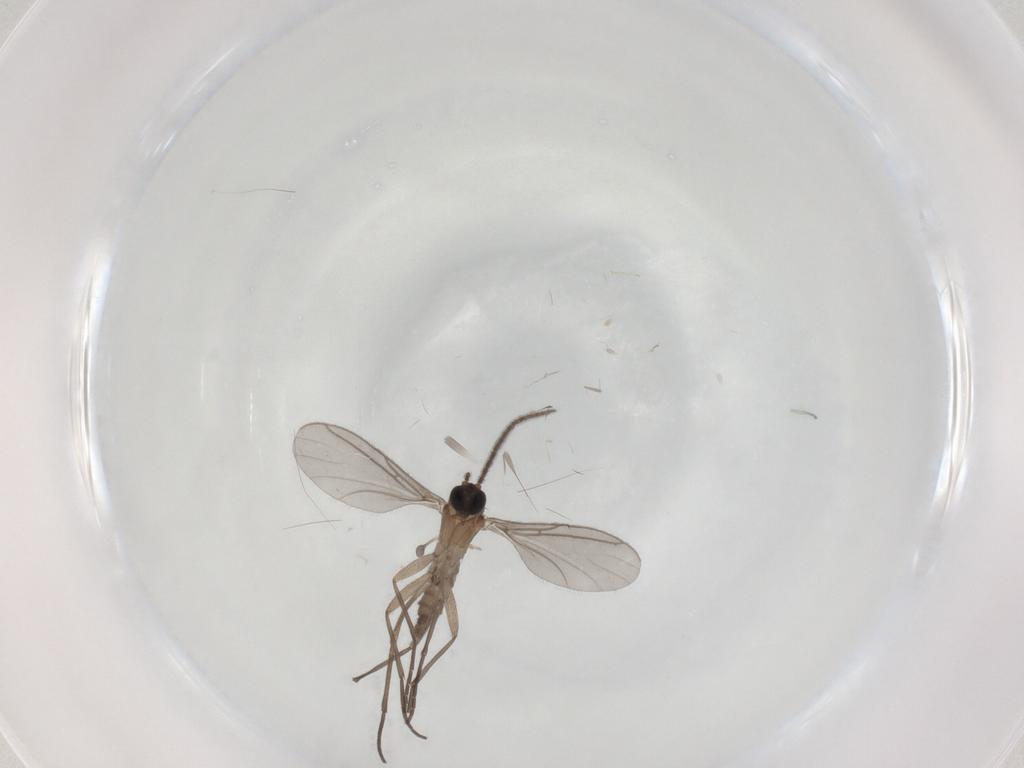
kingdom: Animalia
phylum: Arthropoda
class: Insecta
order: Diptera
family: Sciaridae
